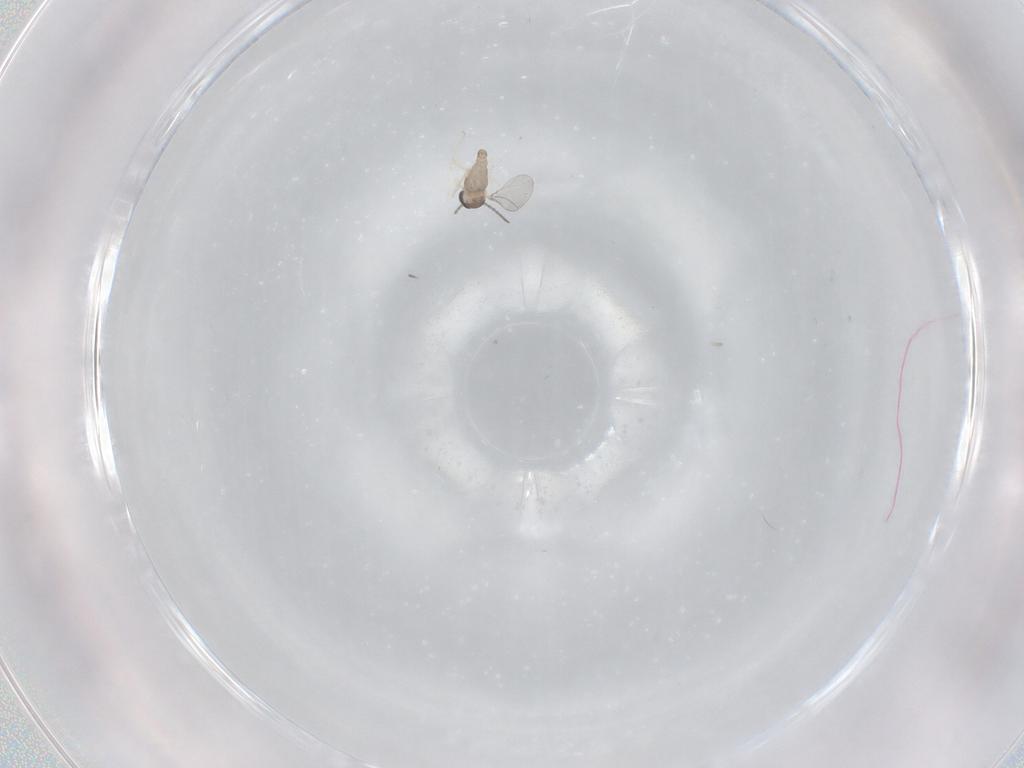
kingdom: Animalia
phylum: Arthropoda
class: Insecta
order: Diptera
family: Cecidomyiidae
